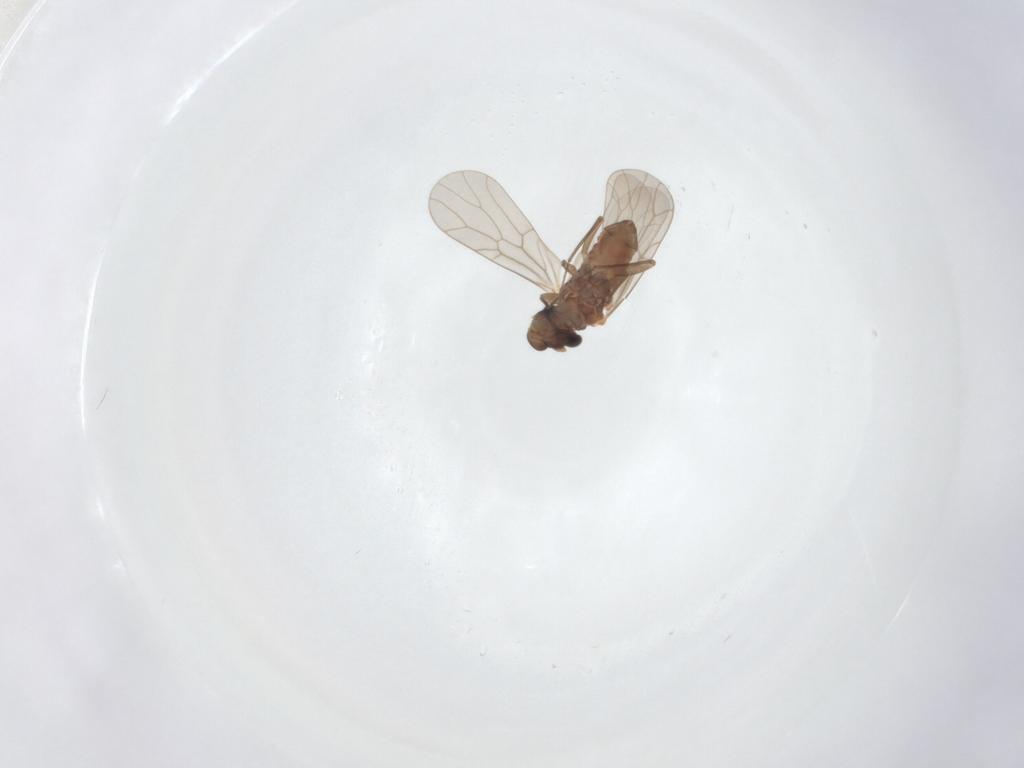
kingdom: Animalia
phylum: Arthropoda
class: Insecta
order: Psocodea
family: Lepidopsocidae
